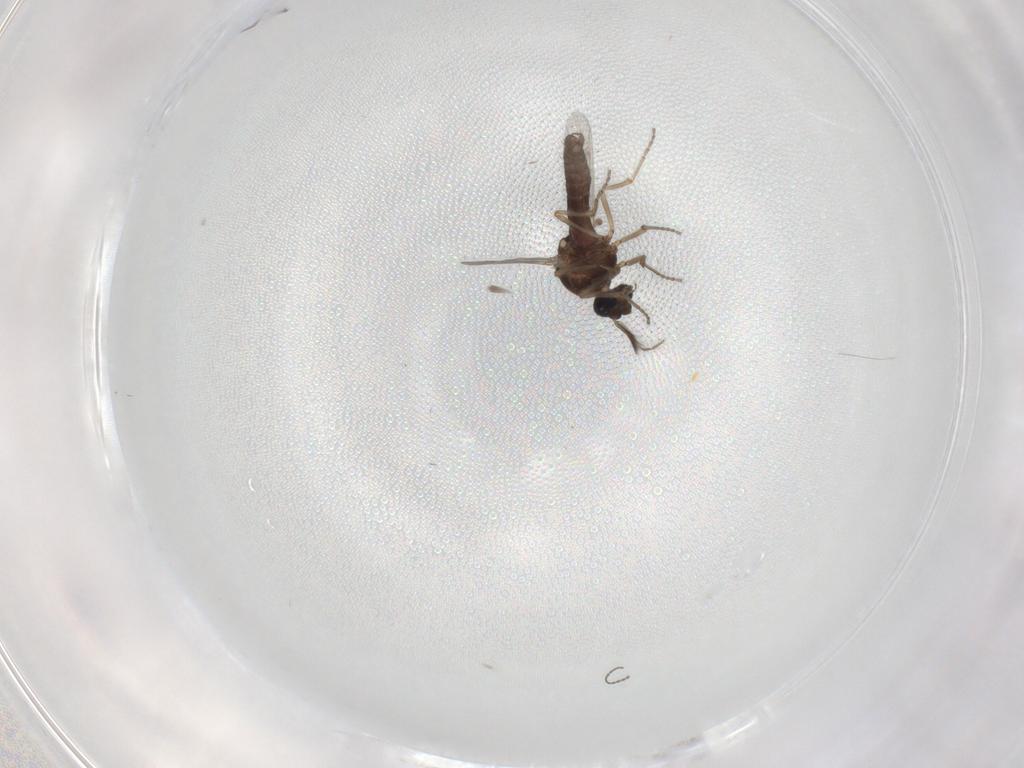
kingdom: Animalia
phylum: Arthropoda
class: Insecta
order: Diptera
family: Ceratopogonidae
